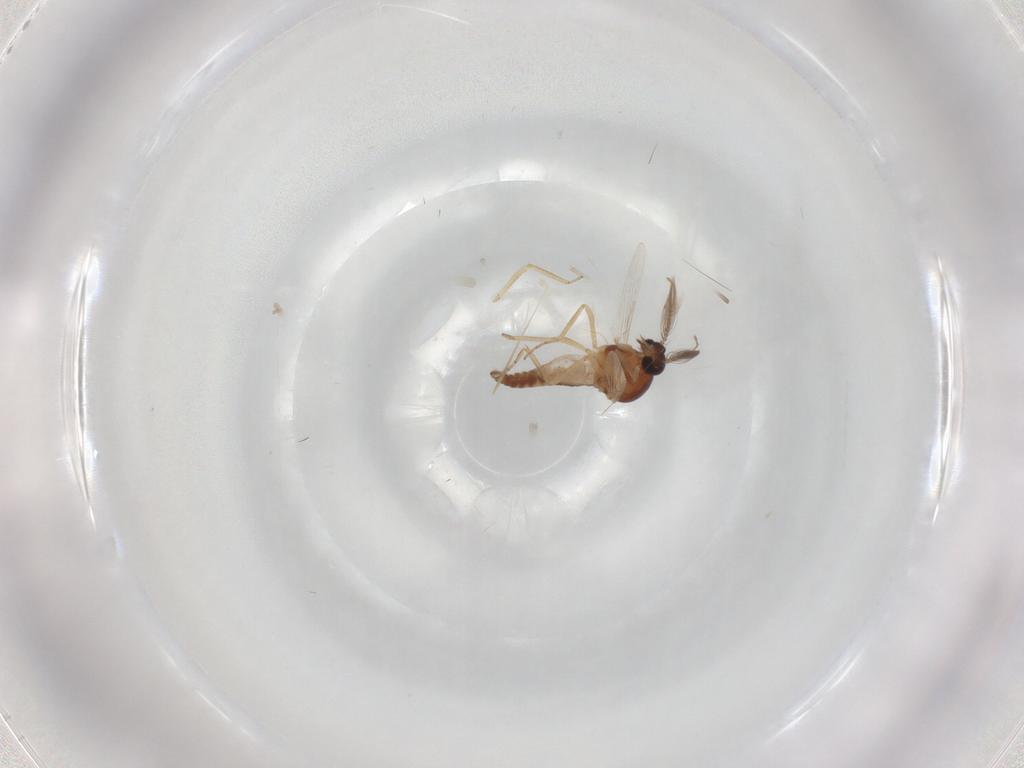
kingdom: Animalia
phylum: Arthropoda
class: Insecta
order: Diptera
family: Ceratopogonidae
